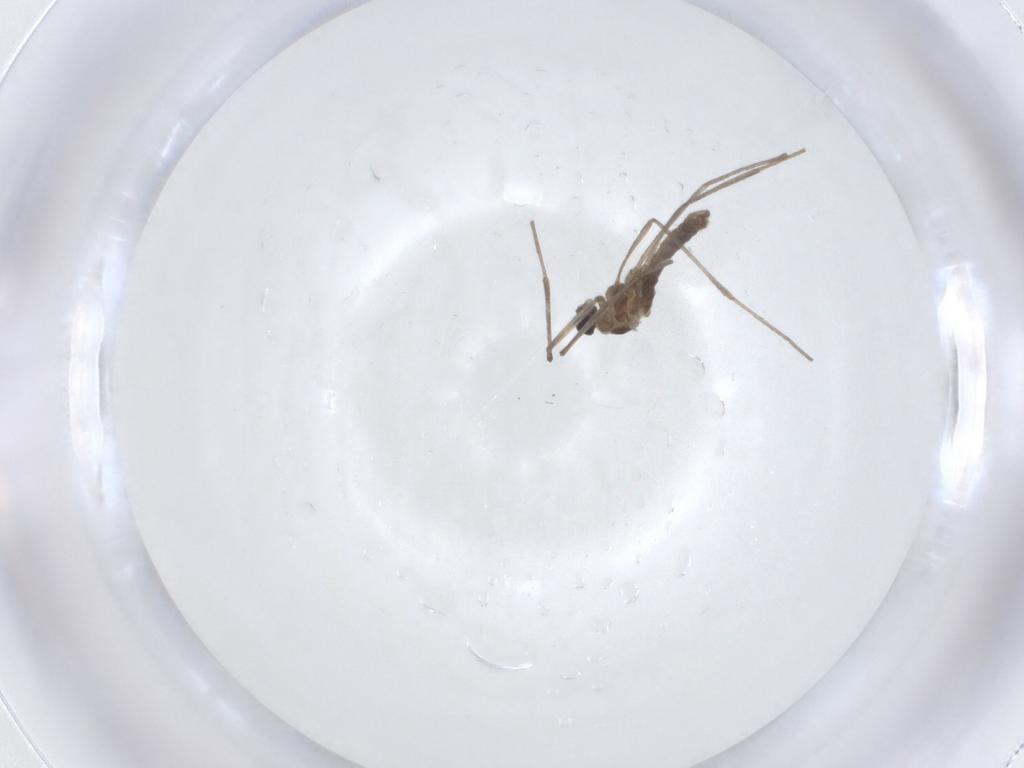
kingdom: Animalia
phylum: Arthropoda
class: Insecta
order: Diptera
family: Cecidomyiidae
